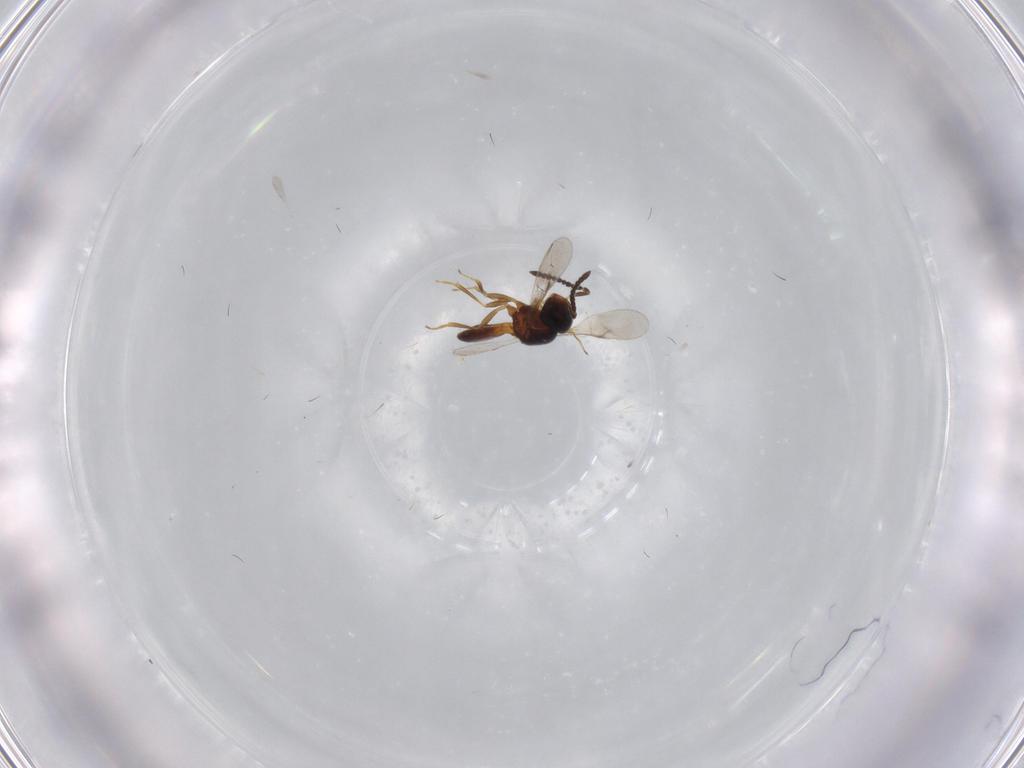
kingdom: Animalia
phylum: Arthropoda
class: Insecta
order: Hymenoptera
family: Scelionidae
